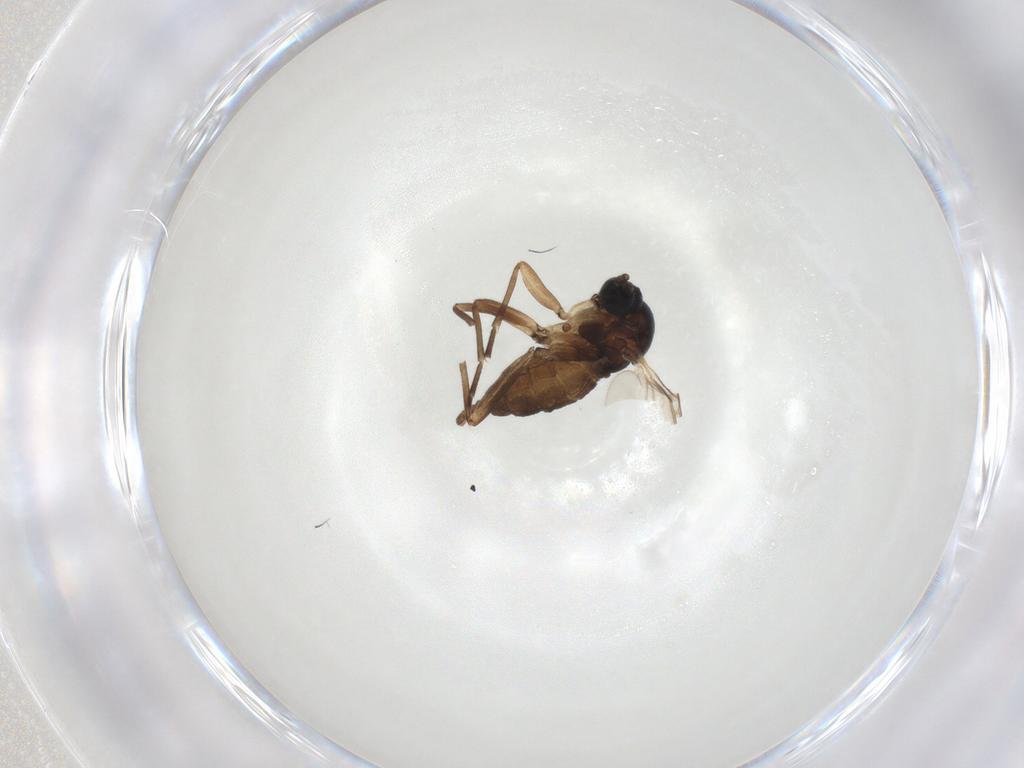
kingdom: Animalia
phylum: Arthropoda
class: Insecta
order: Diptera
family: Sciaridae
